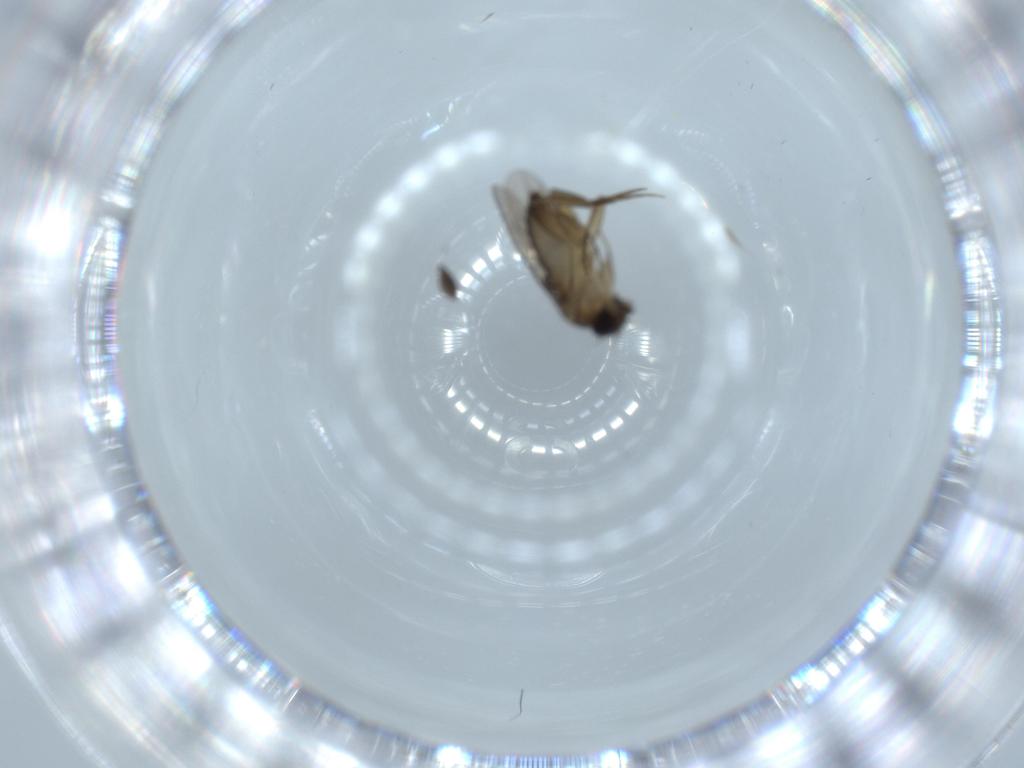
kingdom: Animalia
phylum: Arthropoda
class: Insecta
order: Diptera
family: Phoridae
